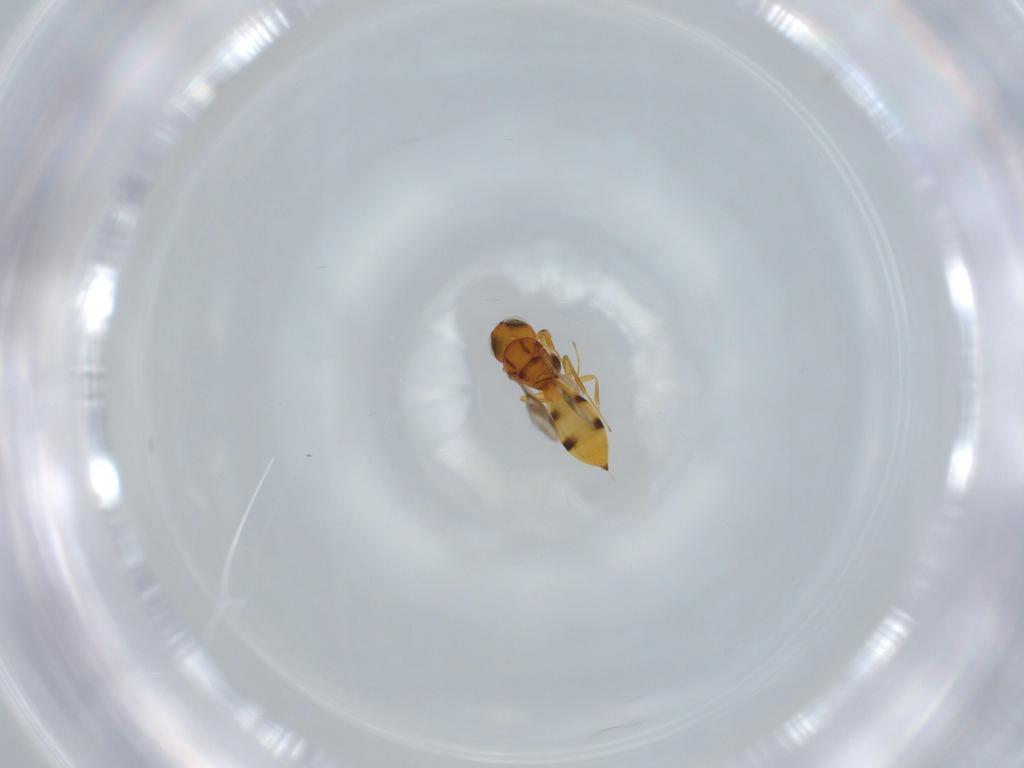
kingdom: Animalia
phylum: Arthropoda
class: Insecta
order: Hymenoptera
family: Scelionidae
